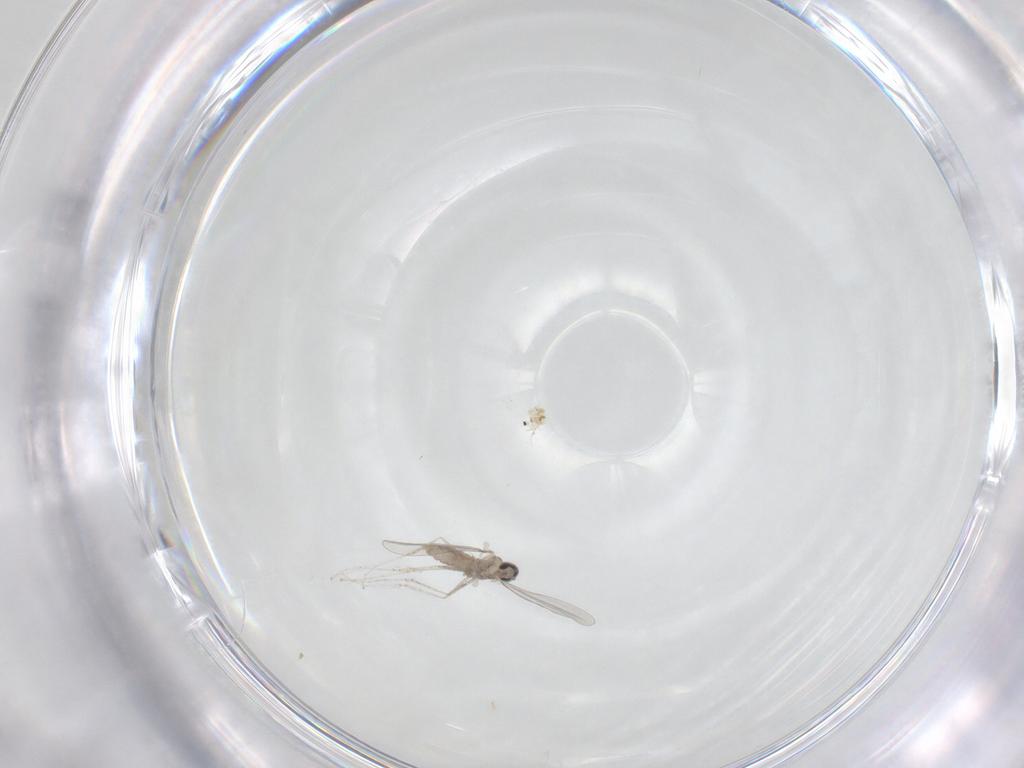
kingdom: Animalia
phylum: Arthropoda
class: Insecta
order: Diptera
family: Cecidomyiidae
